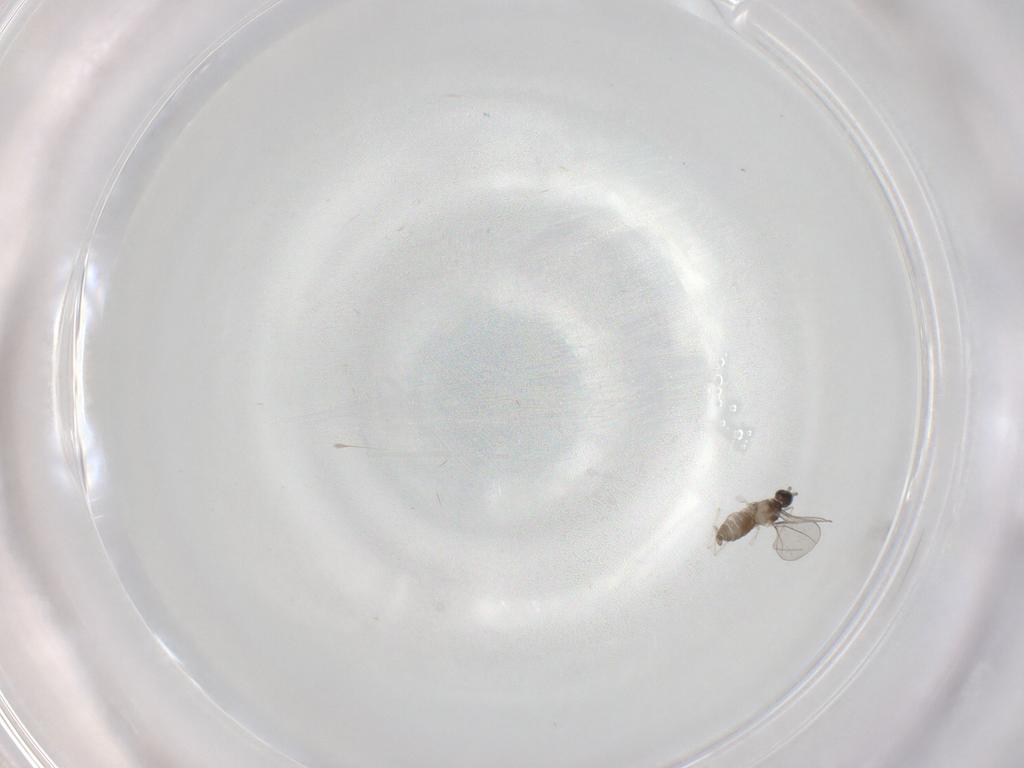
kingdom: Animalia
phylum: Arthropoda
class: Insecta
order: Diptera
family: Cecidomyiidae
